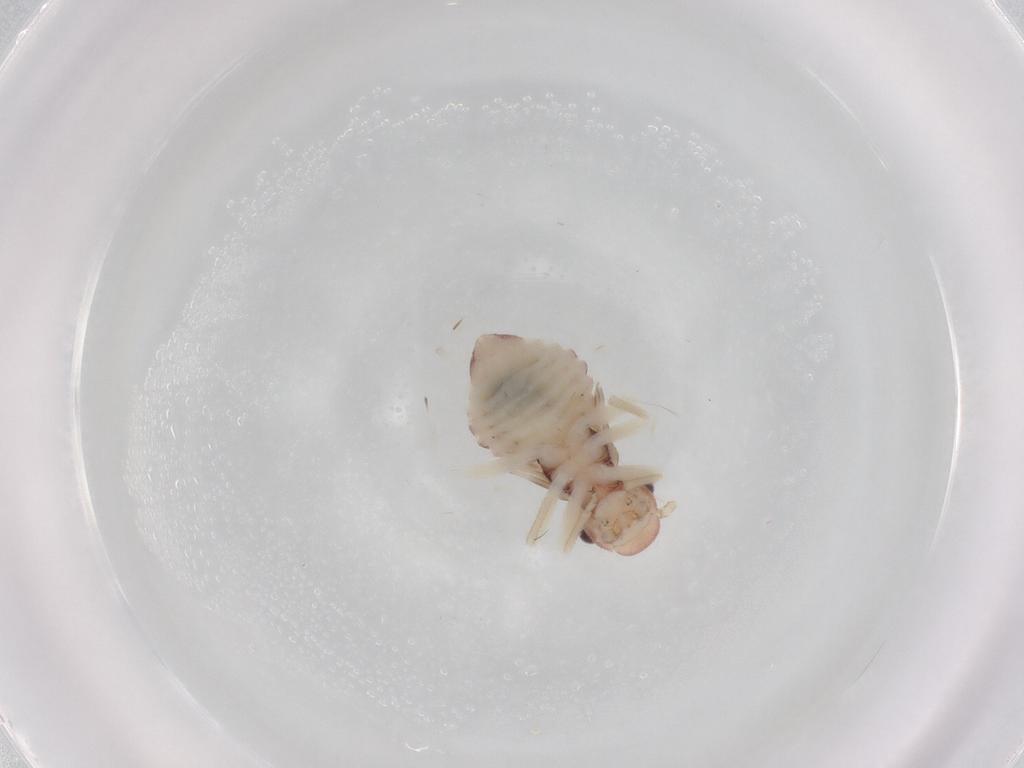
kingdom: Animalia
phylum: Arthropoda
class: Insecta
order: Psocodea
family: Amphipsocidae
